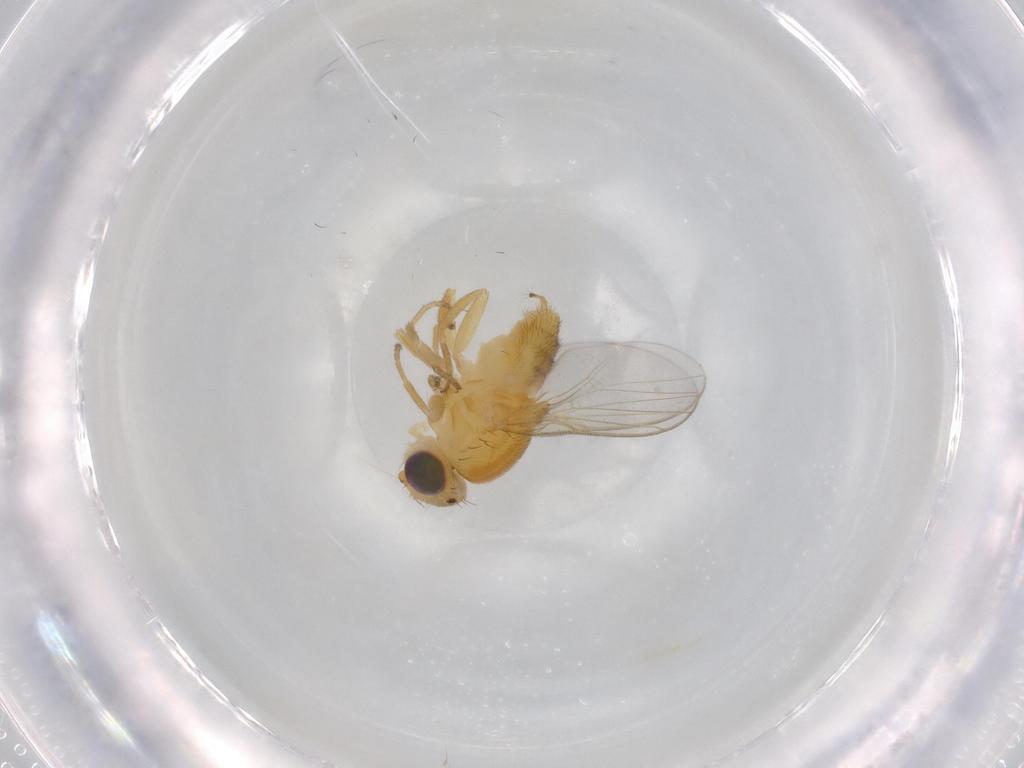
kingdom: Animalia
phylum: Arthropoda
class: Insecta
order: Diptera
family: Chloropidae
